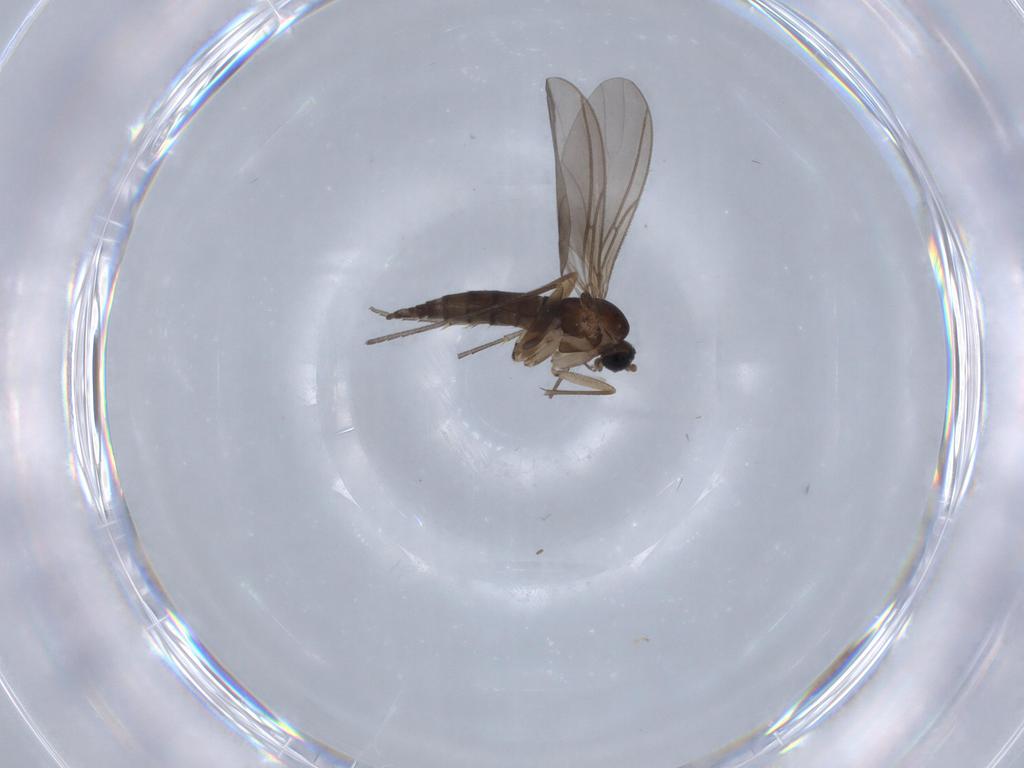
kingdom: Animalia
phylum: Arthropoda
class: Insecta
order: Diptera
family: Sciaridae
